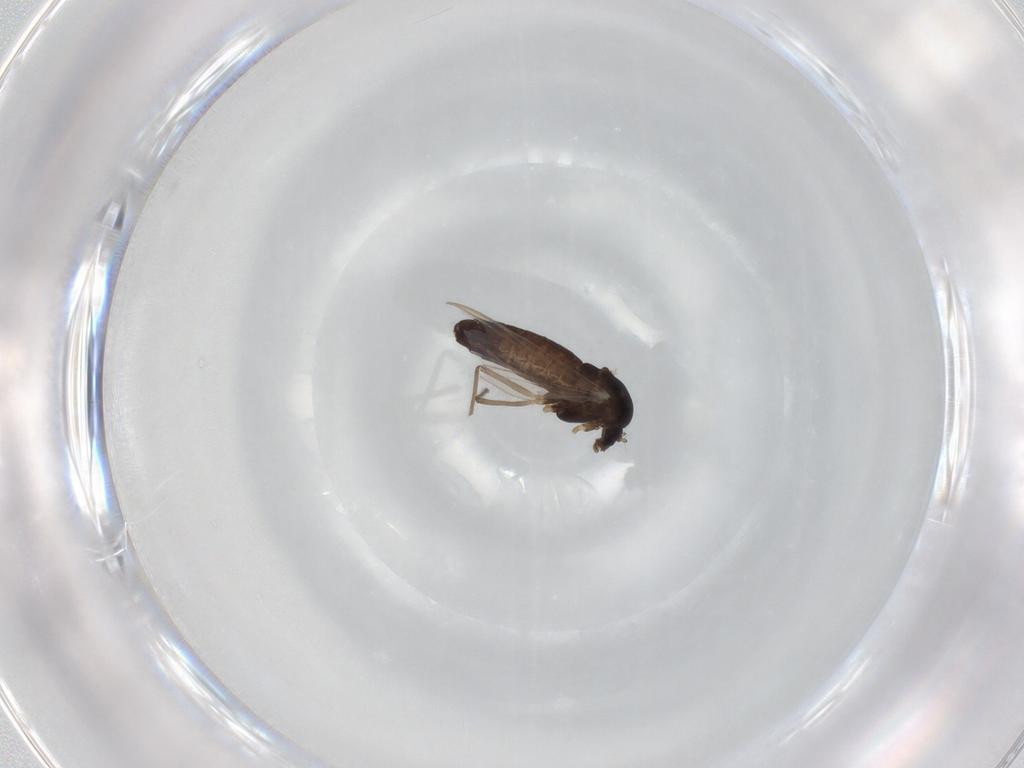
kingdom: Animalia
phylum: Arthropoda
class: Insecta
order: Diptera
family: Chironomidae
